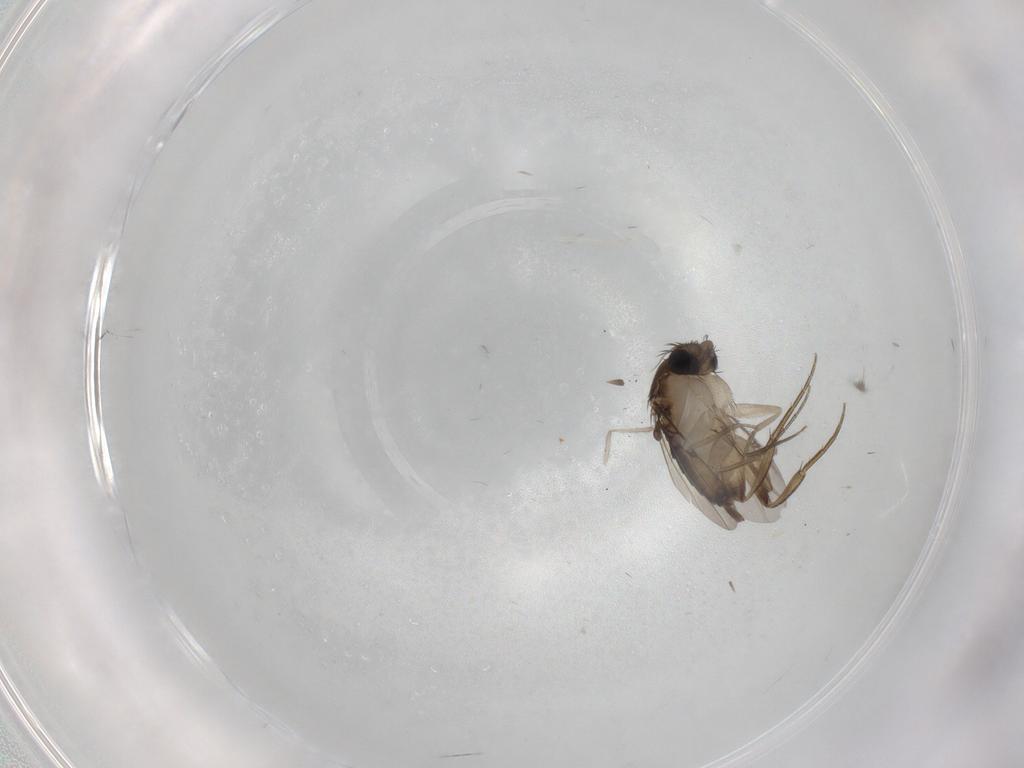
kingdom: Animalia
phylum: Arthropoda
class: Insecta
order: Diptera
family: Phoridae
